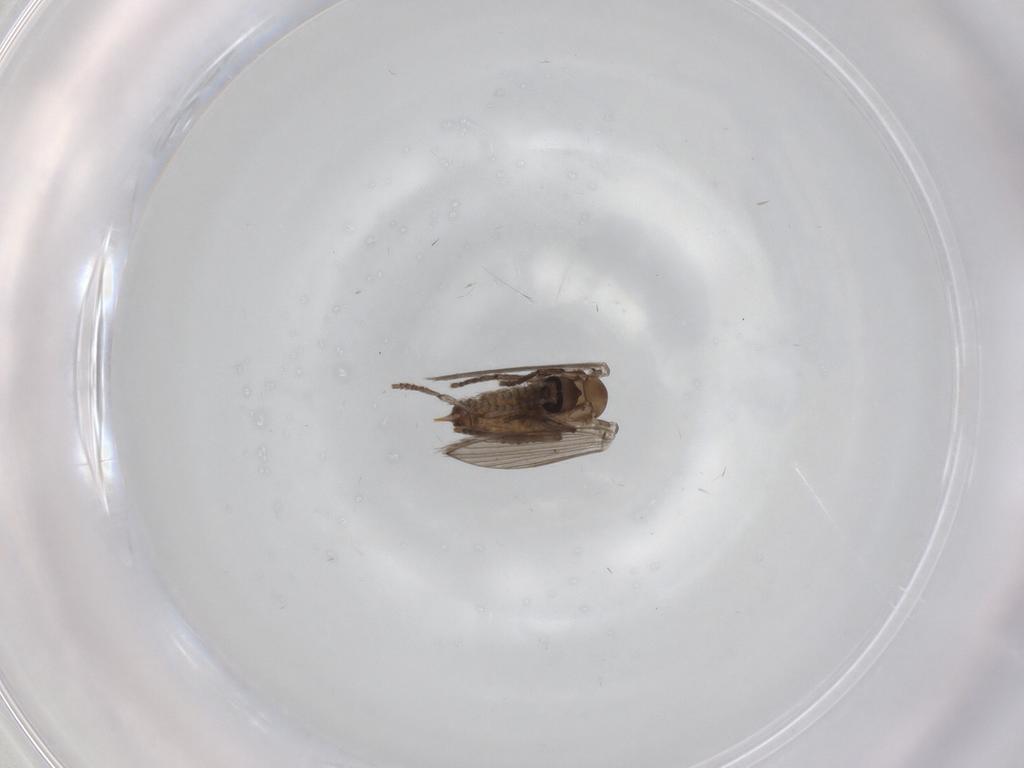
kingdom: Animalia
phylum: Arthropoda
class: Insecta
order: Diptera
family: Psychodidae
